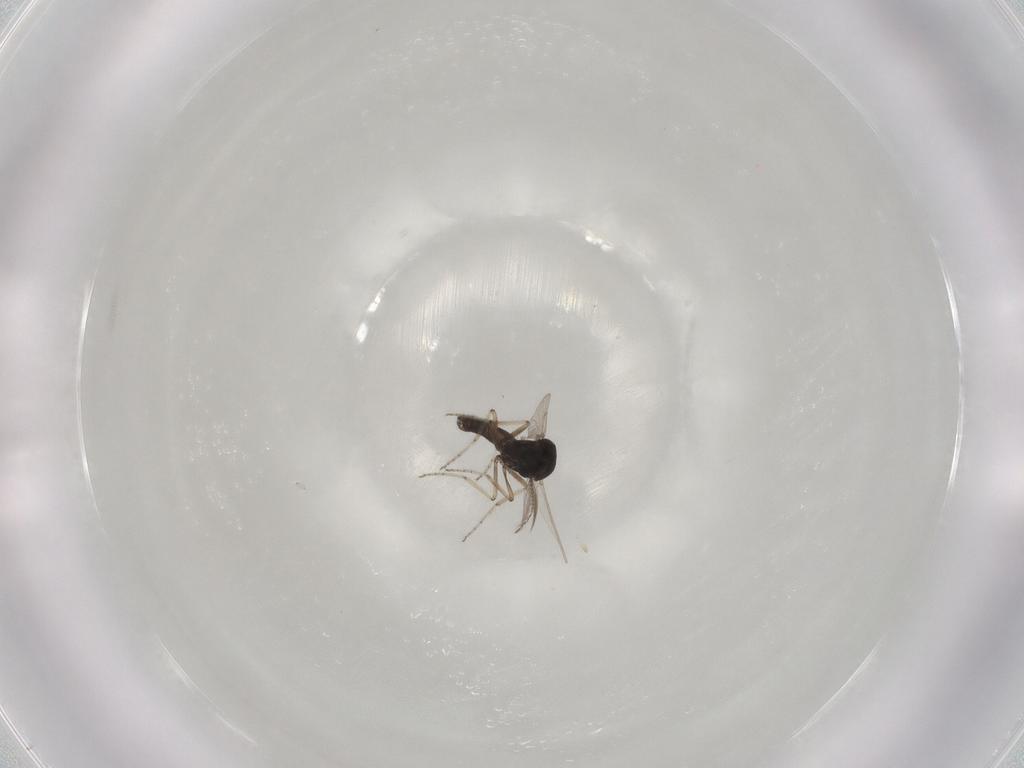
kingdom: Animalia
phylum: Arthropoda
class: Insecta
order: Diptera
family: Ceratopogonidae
